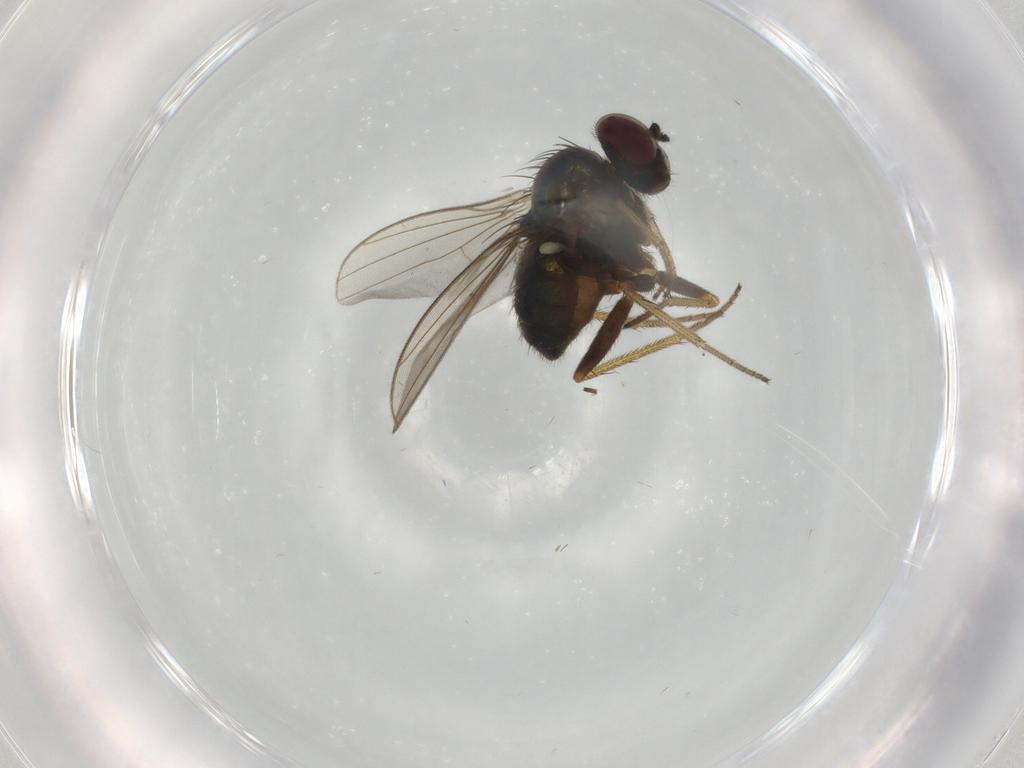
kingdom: Animalia
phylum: Arthropoda
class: Insecta
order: Diptera
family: Dolichopodidae
